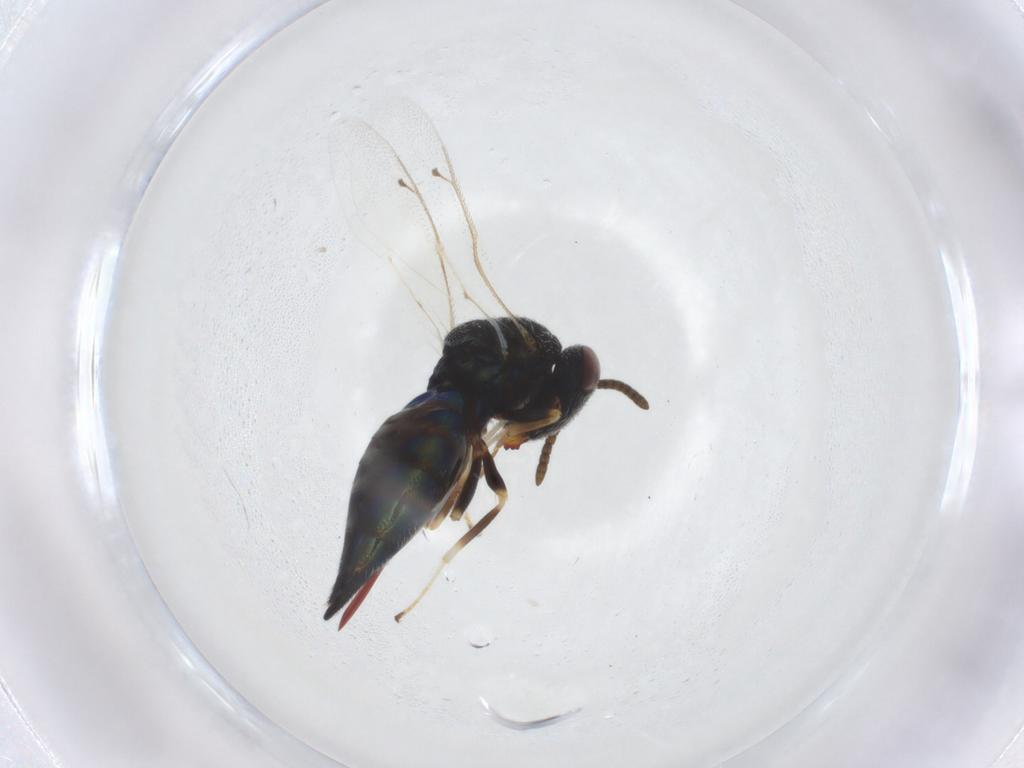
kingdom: Animalia
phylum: Arthropoda
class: Insecta
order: Hymenoptera
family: Pteromalidae
